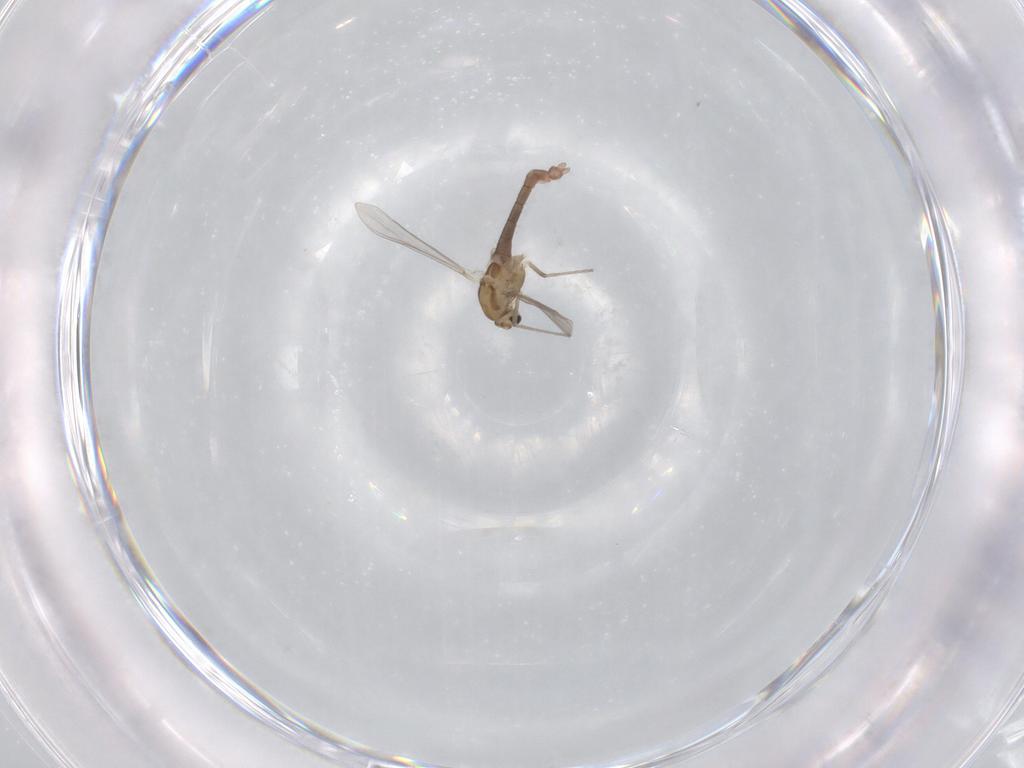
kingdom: Animalia
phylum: Arthropoda
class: Insecta
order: Diptera
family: Chironomidae
